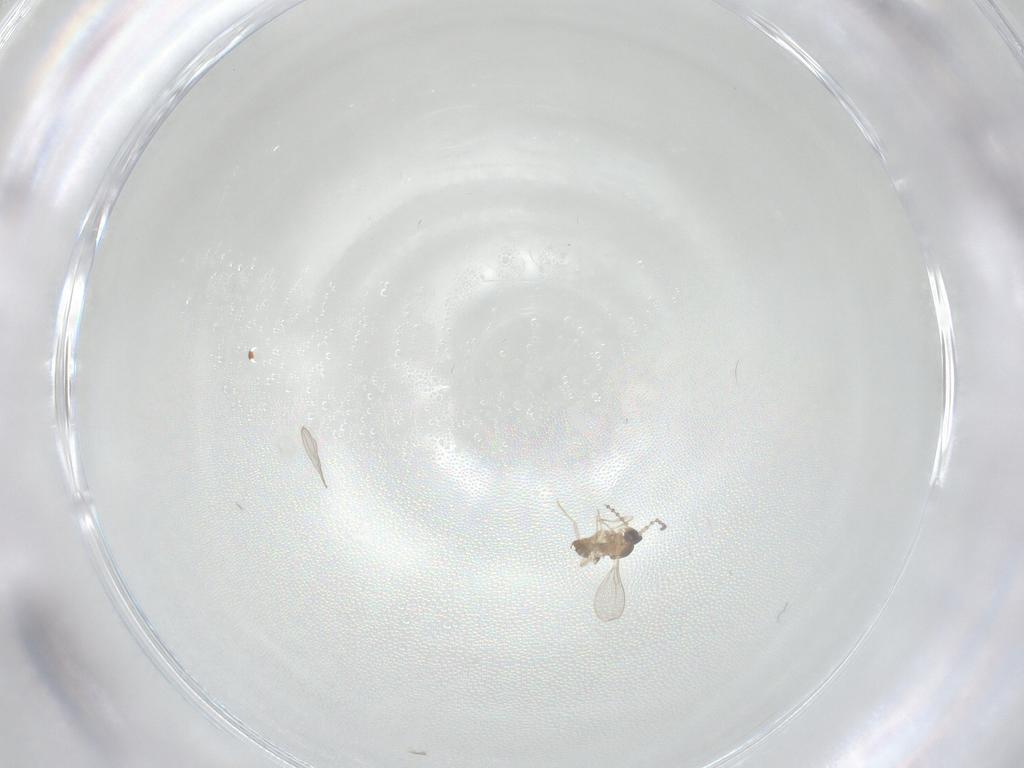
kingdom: Animalia
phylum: Arthropoda
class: Insecta
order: Diptera
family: Cecidomyiidae
